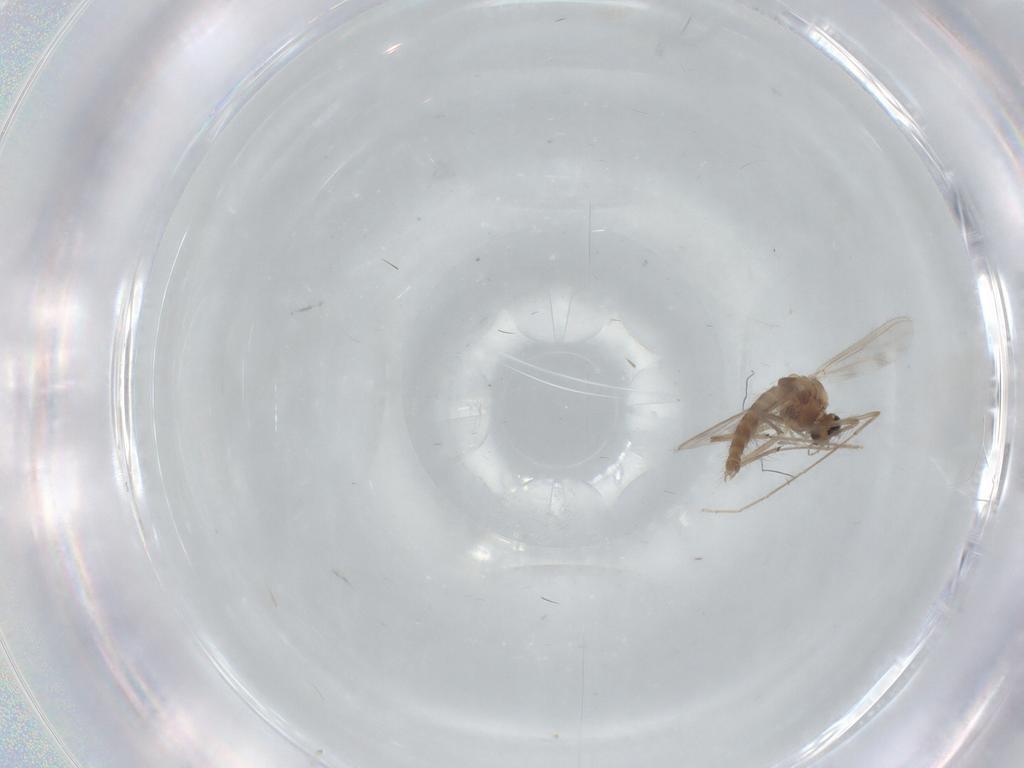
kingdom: Animalia
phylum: Arthropoda
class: Insecta
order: Diptera
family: Chironomidae
